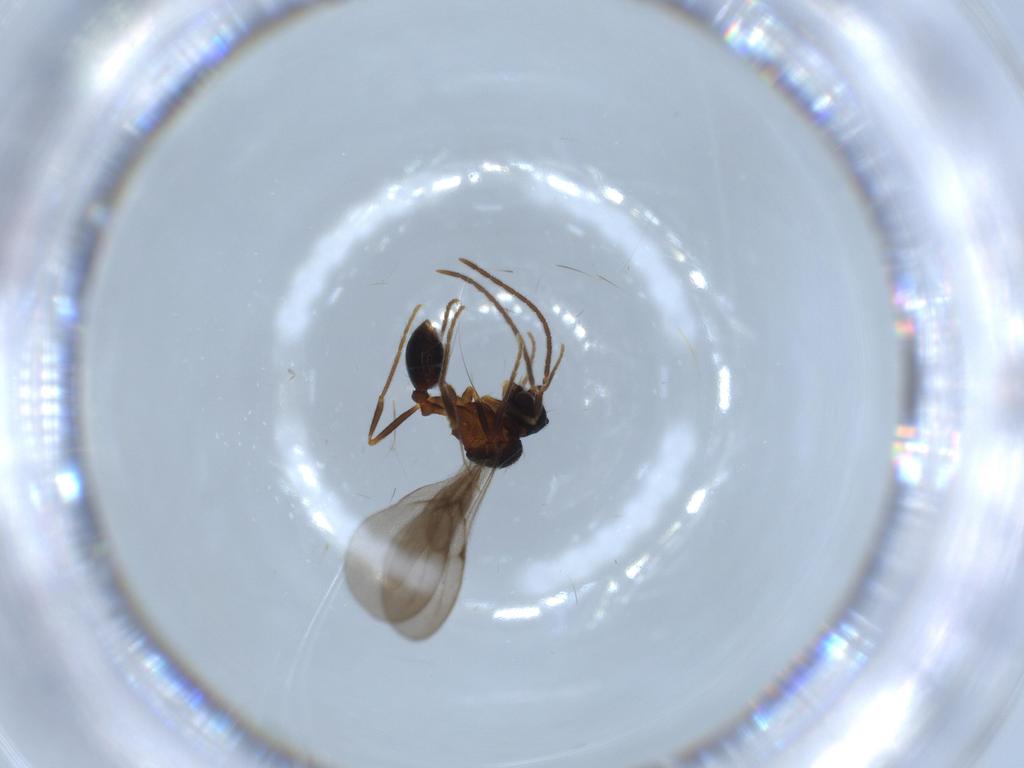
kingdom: Animalia
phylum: Arthropoda
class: Insecta
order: Hymenoptera
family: Formicidae
